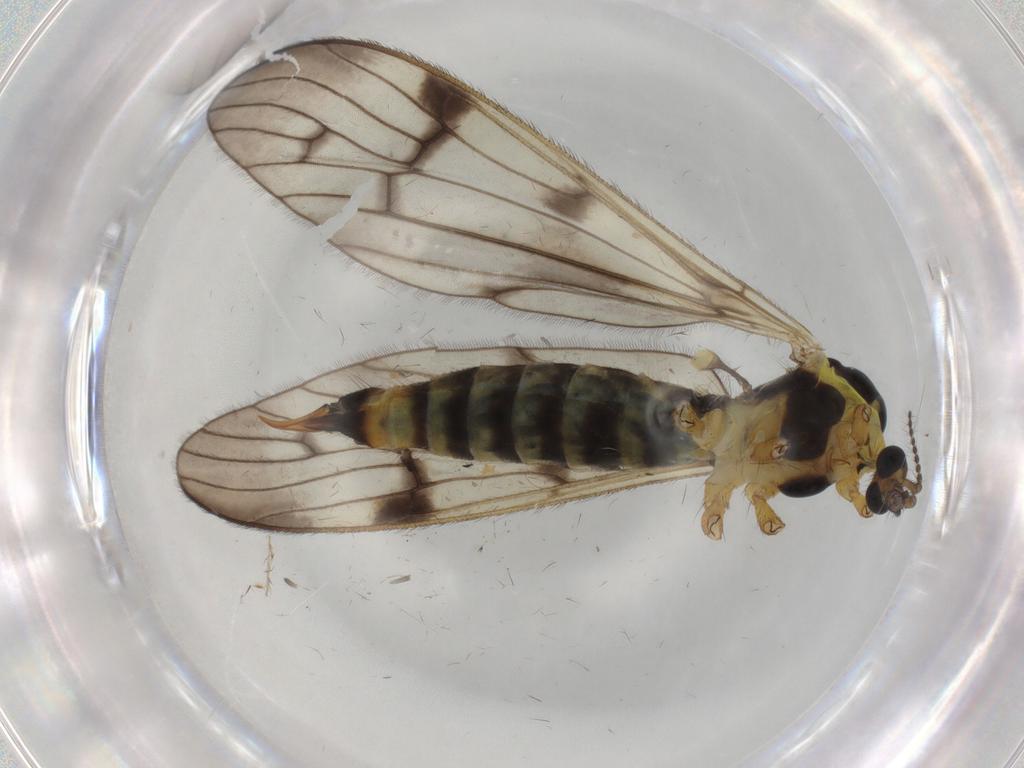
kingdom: Animalia
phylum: Arthropoda
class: Insecta
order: Diptera
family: Limoniidae
